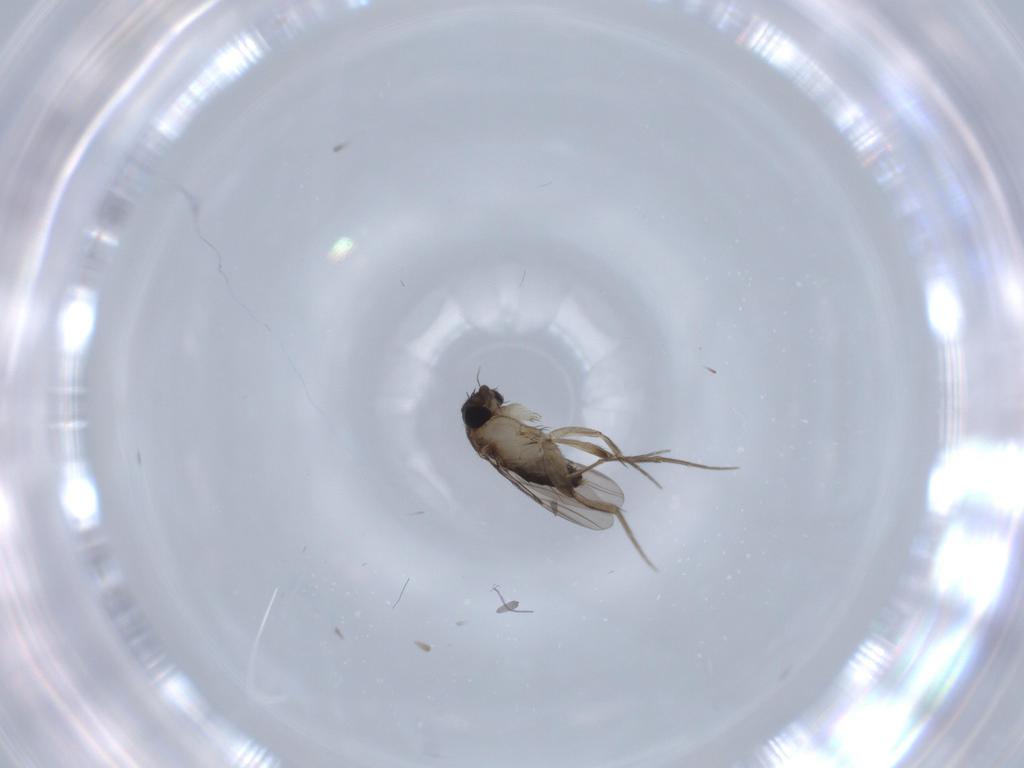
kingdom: Animalia
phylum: Arthropoda
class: Insecta
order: Diptera
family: Phoridae
